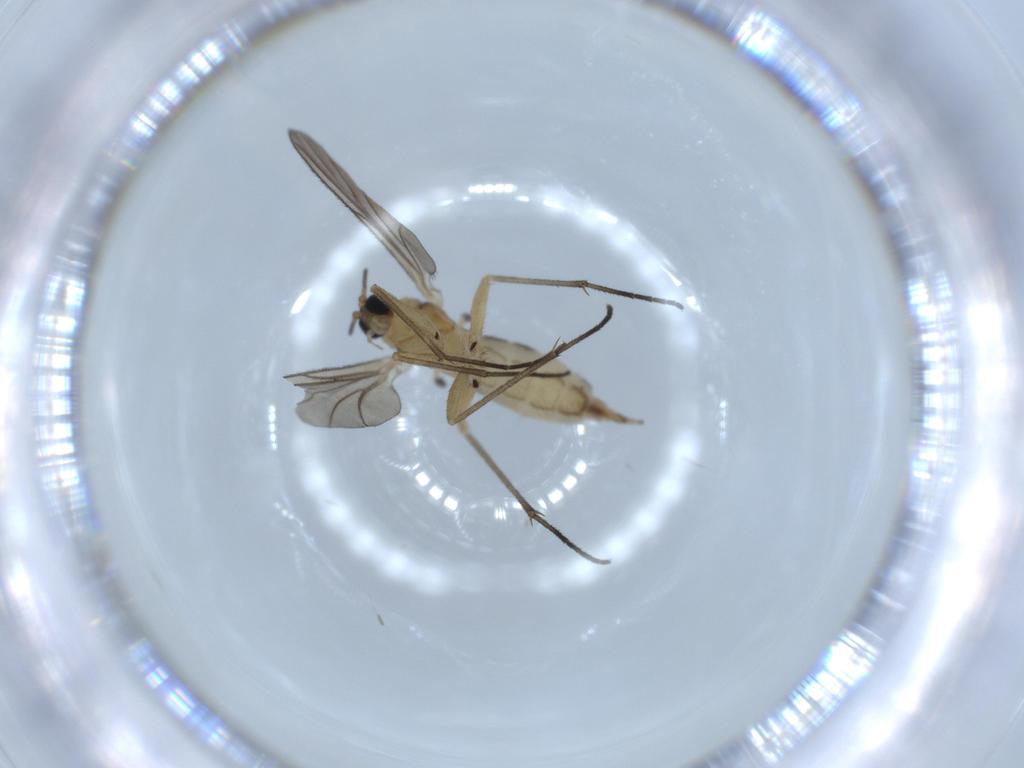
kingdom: Animalia
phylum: Arthropoda
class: Insecta
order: Diptera
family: Sciaridae
